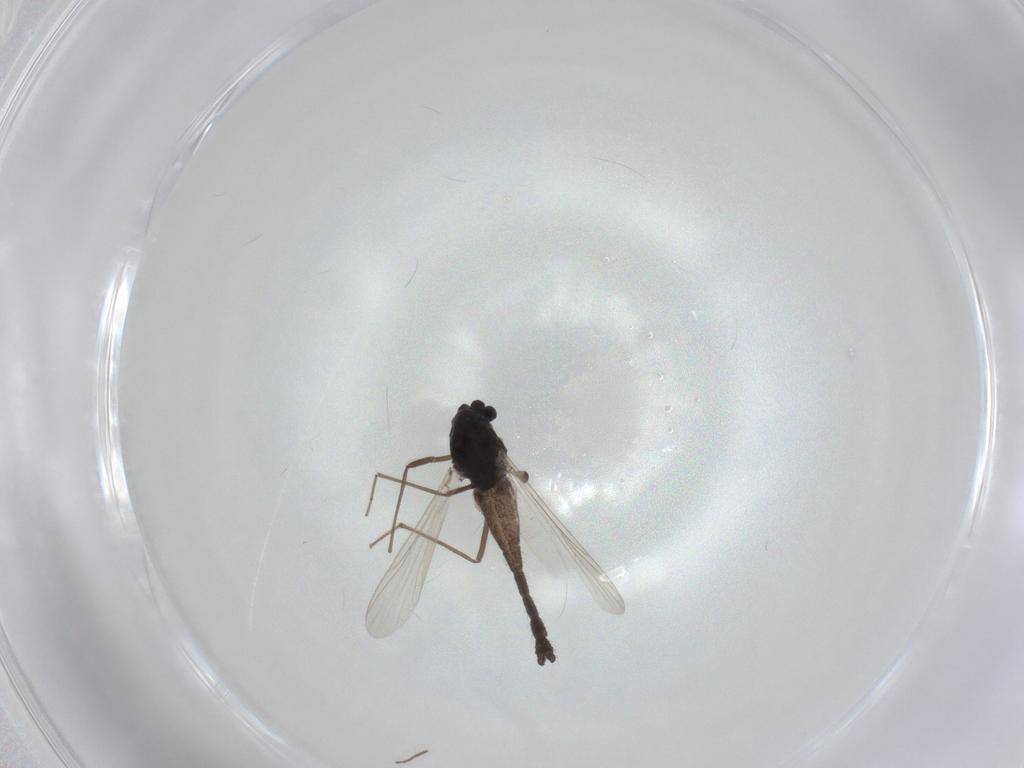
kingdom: Animalia
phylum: Arthropoda
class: Insecta
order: Diptera
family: Chironomidae
